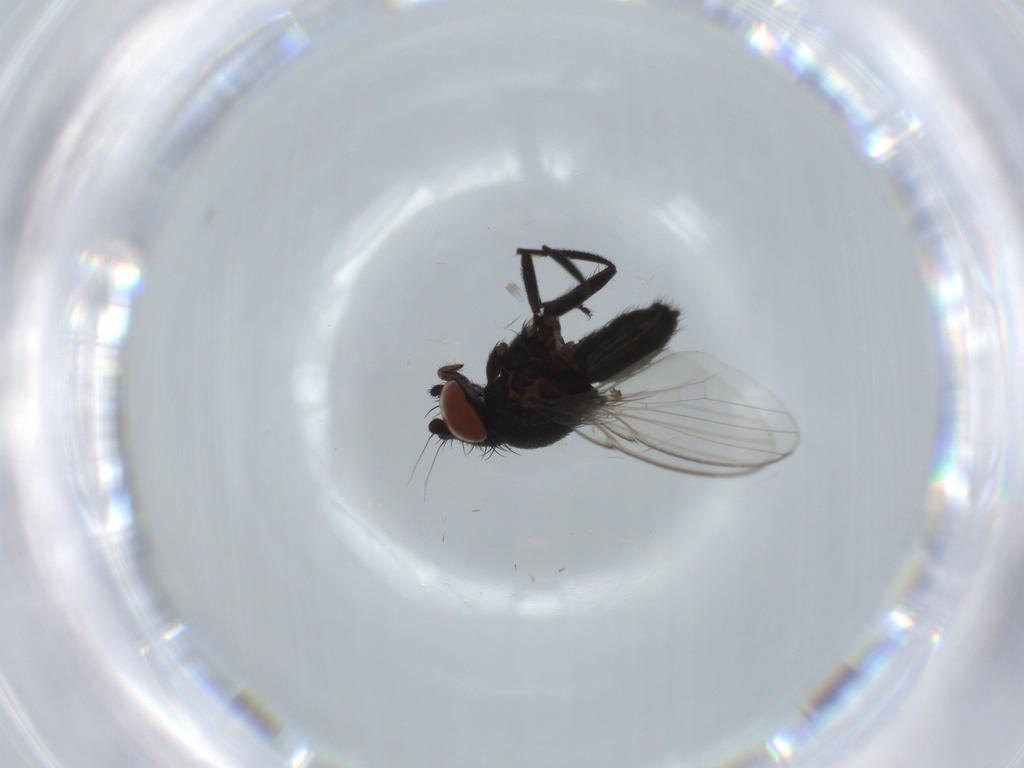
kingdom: Animalia
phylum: Arthropoda
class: Insecta
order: Diptera
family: Milichiidae
